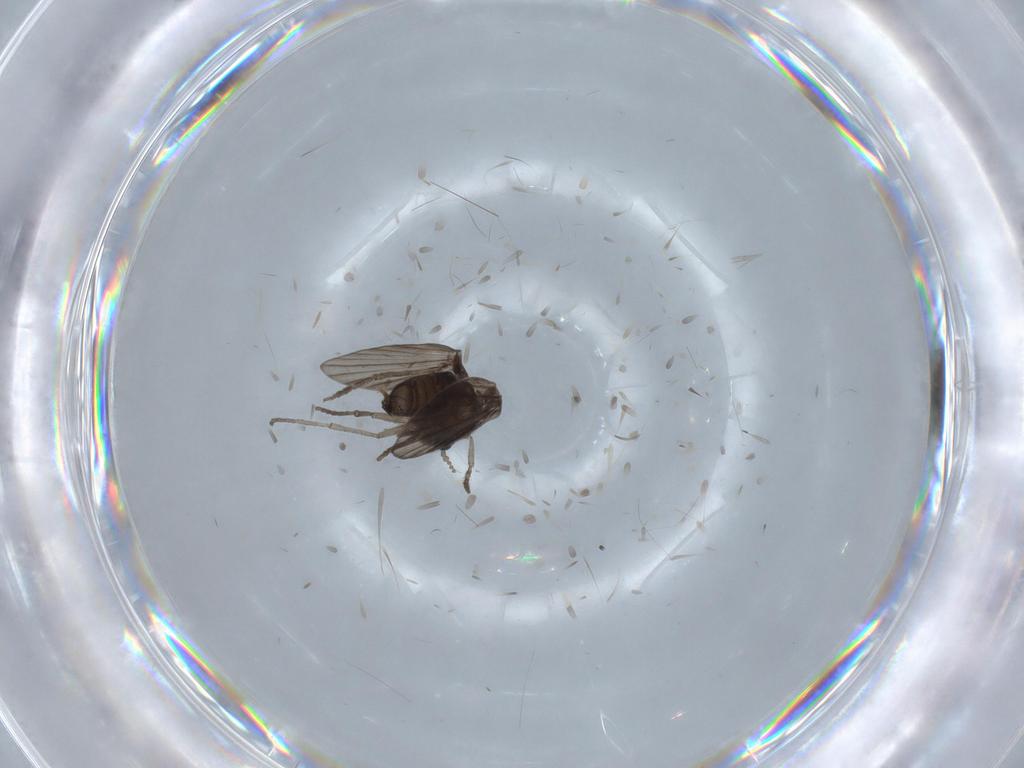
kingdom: Animalia
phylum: Arthropoda
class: Insecta
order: Diptera
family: Psychodidae
